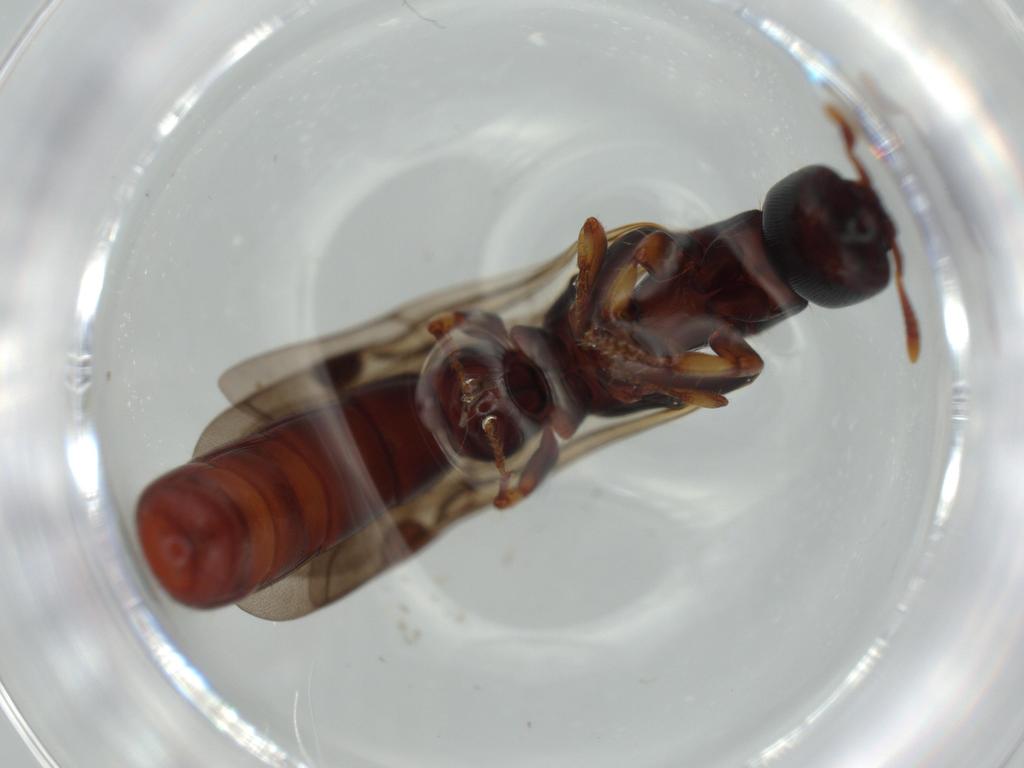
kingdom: Animalia
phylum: Arthropoda
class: Insecta
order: Hymenoptera
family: Formicidae
